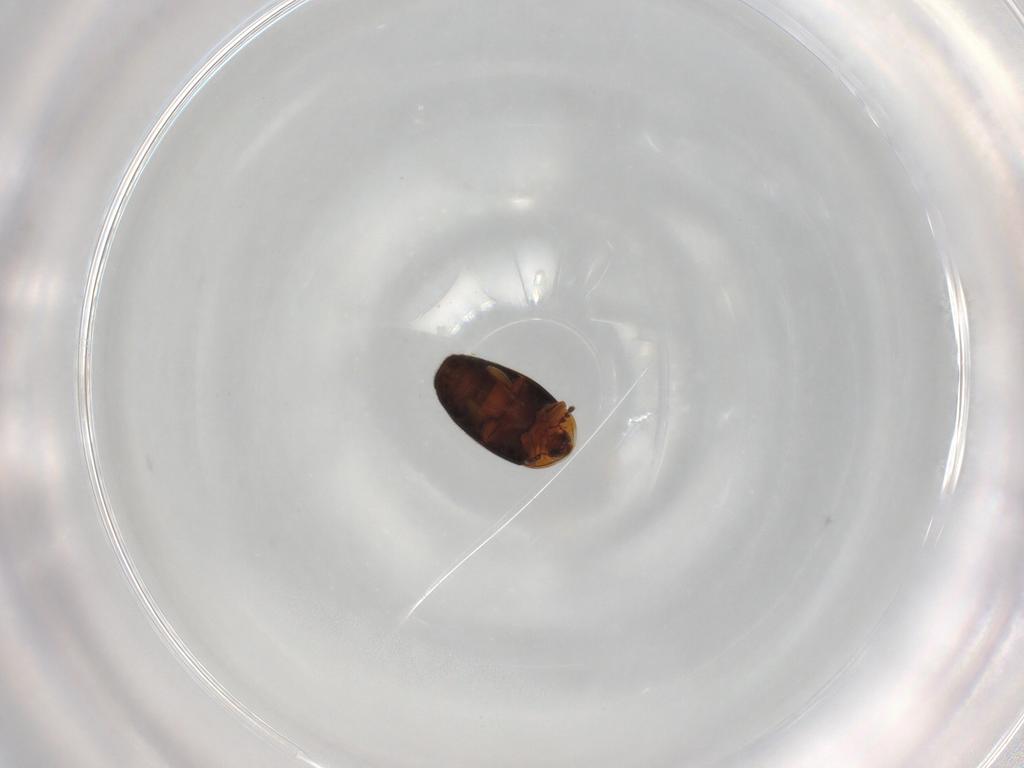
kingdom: Animalia
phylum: Arthropoda
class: Insecta
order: Coleoptera
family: Corylophidae
